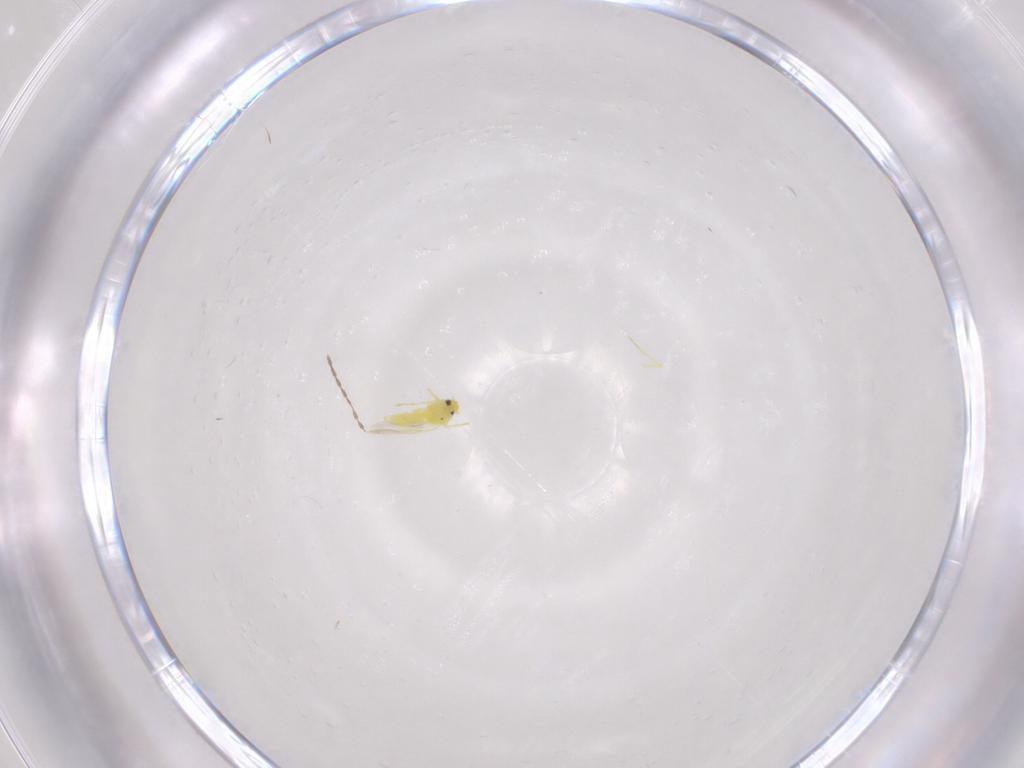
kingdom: Animalia
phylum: Arthropoda
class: Insecta
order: Hemiptera
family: Aleyrodidae
